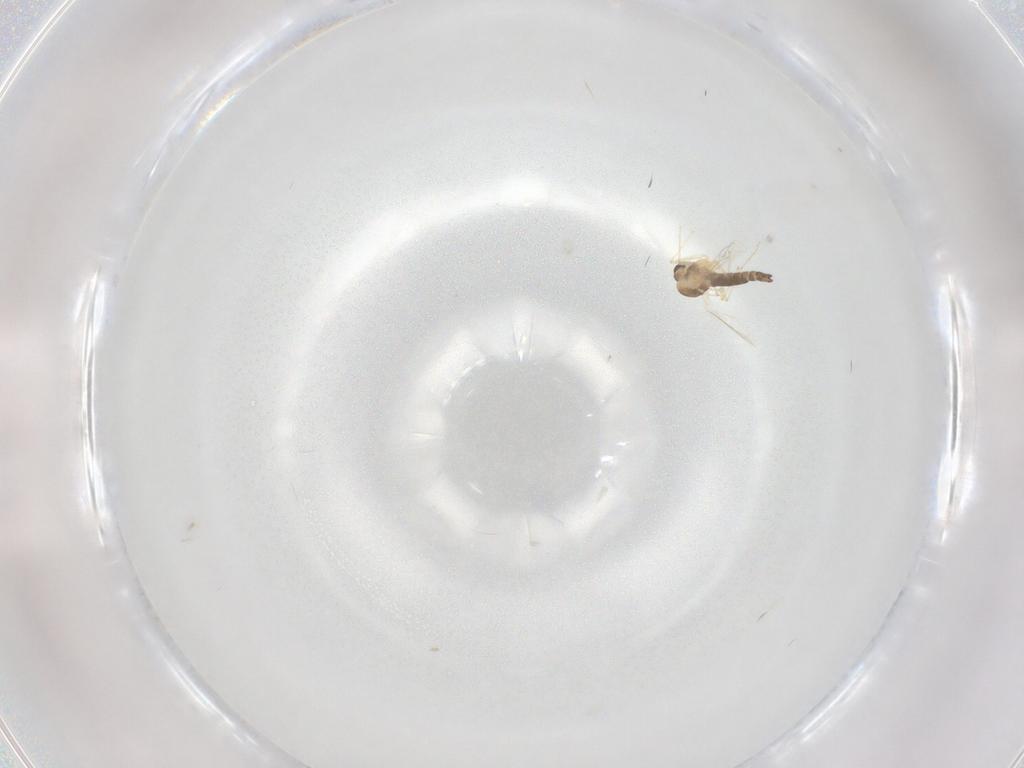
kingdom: Animalia
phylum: Arthropoda
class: Insecta
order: Diptera
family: Chironomidae
